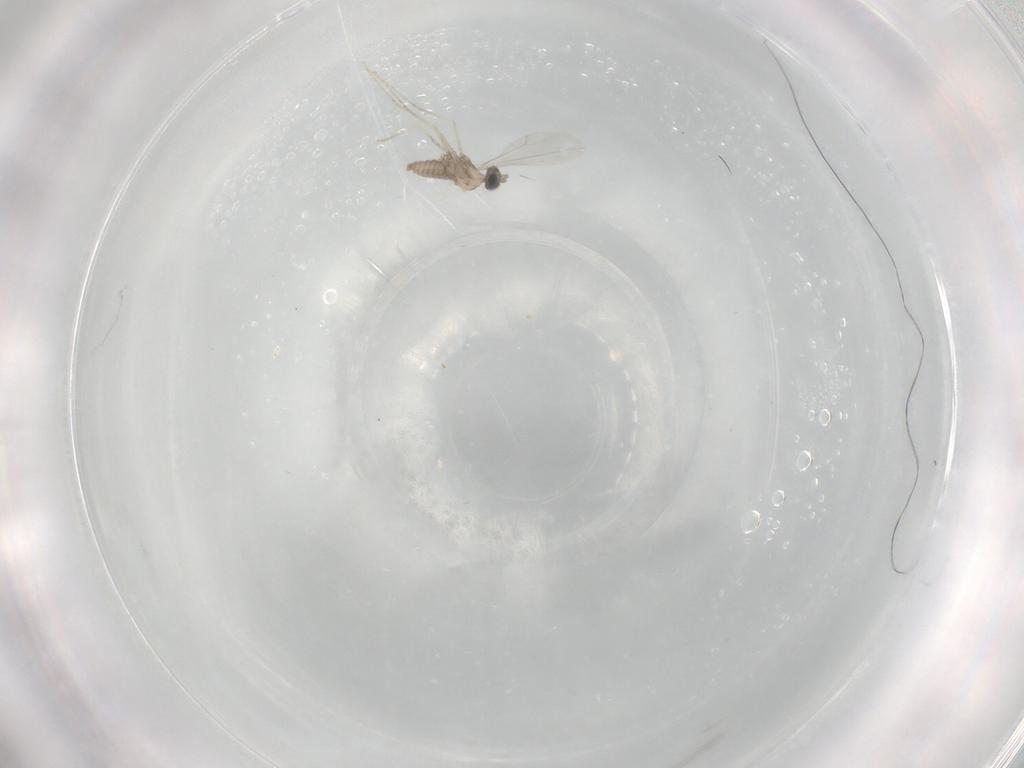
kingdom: Animalia
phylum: Arthropoda
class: Insecta
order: Diptera
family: Cecidomyiidae
